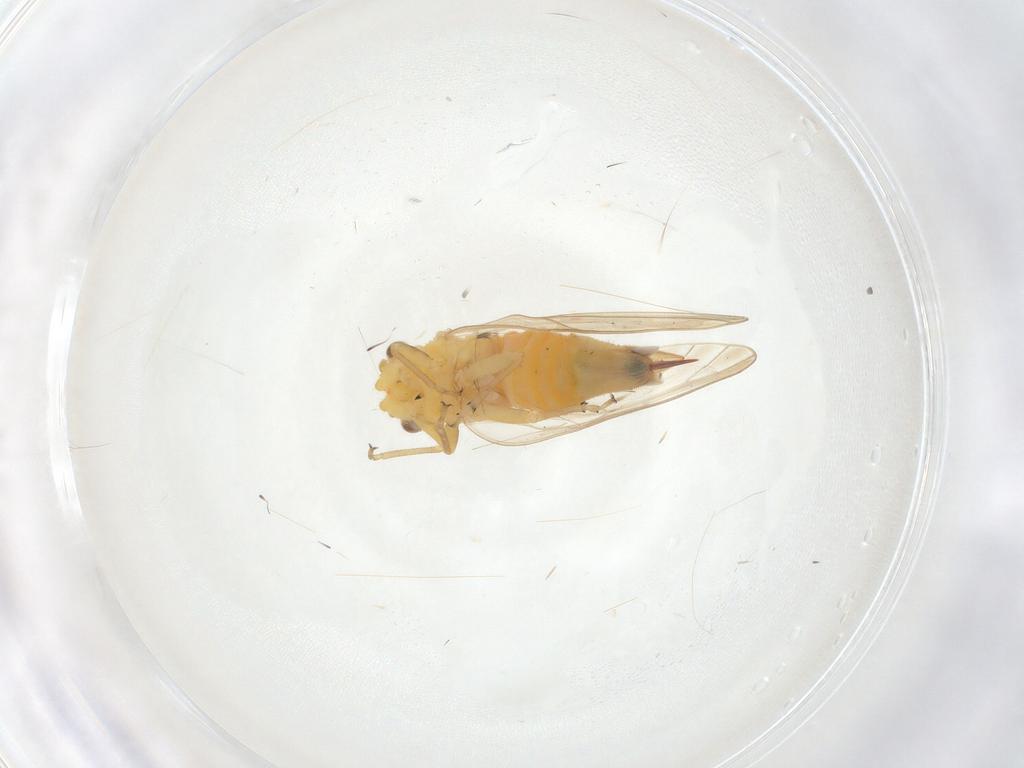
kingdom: Animalia
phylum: Arthropoda
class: Insecta
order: Hemiptera
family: Psyllidae
